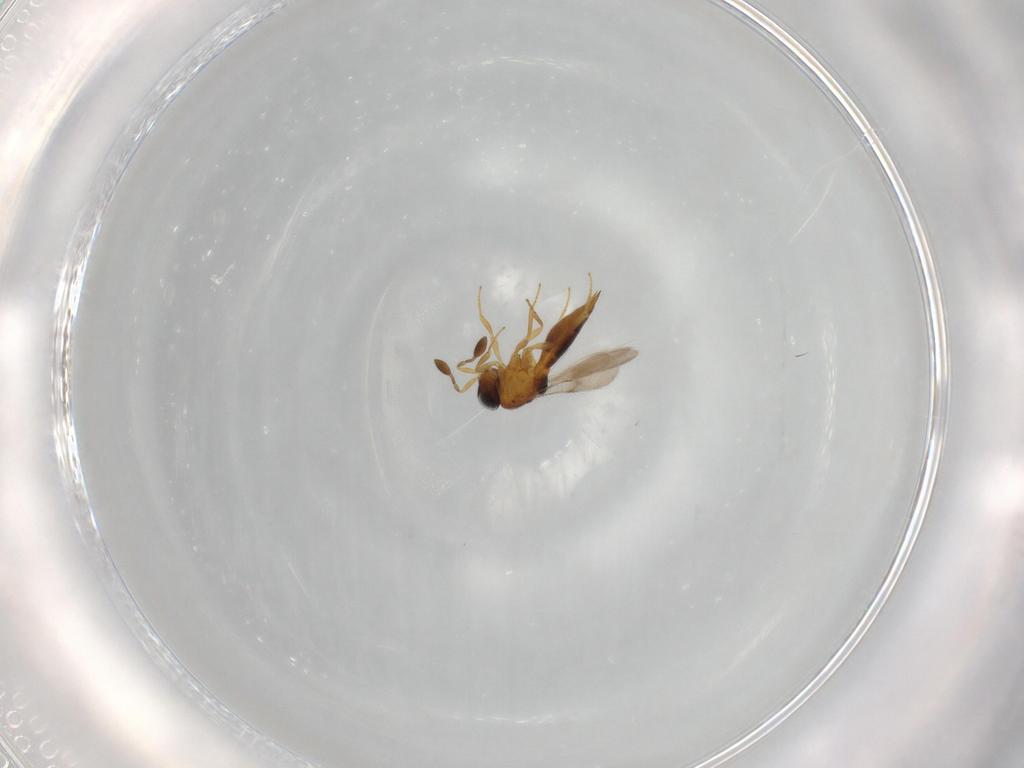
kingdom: Animalia
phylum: Arthropoda
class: Insecta
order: Hymenoptera
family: Scelionidae
